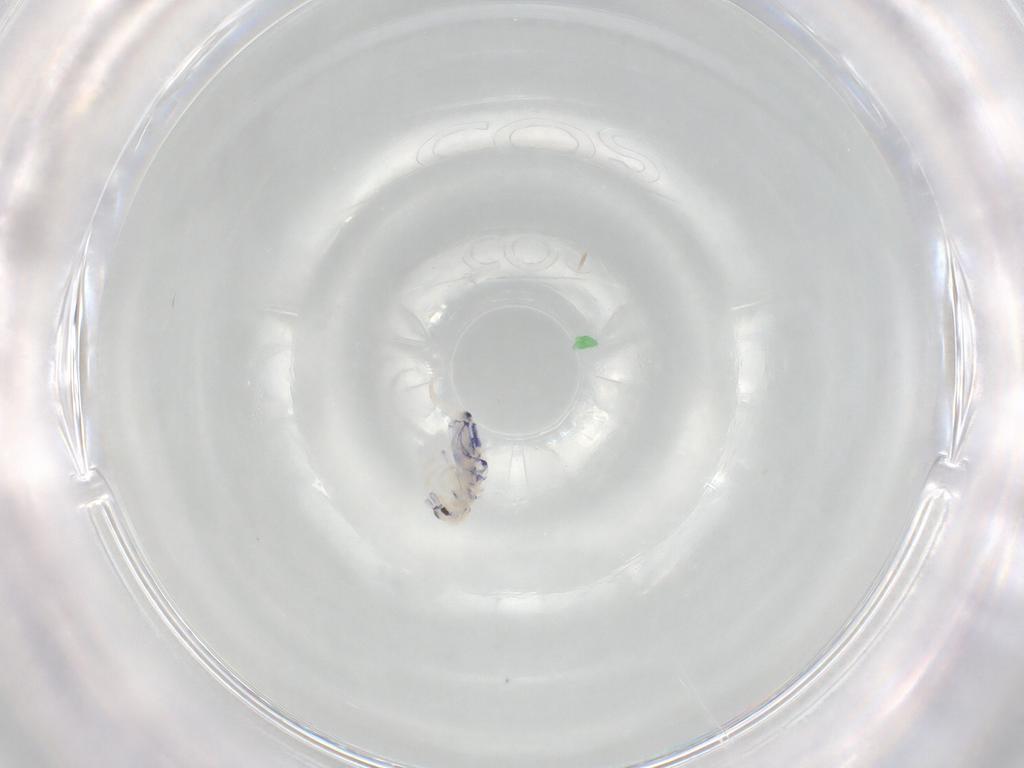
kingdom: Animalia
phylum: Arthropoda
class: Collembola
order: Entomobryomorpha
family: Entomobryidae
